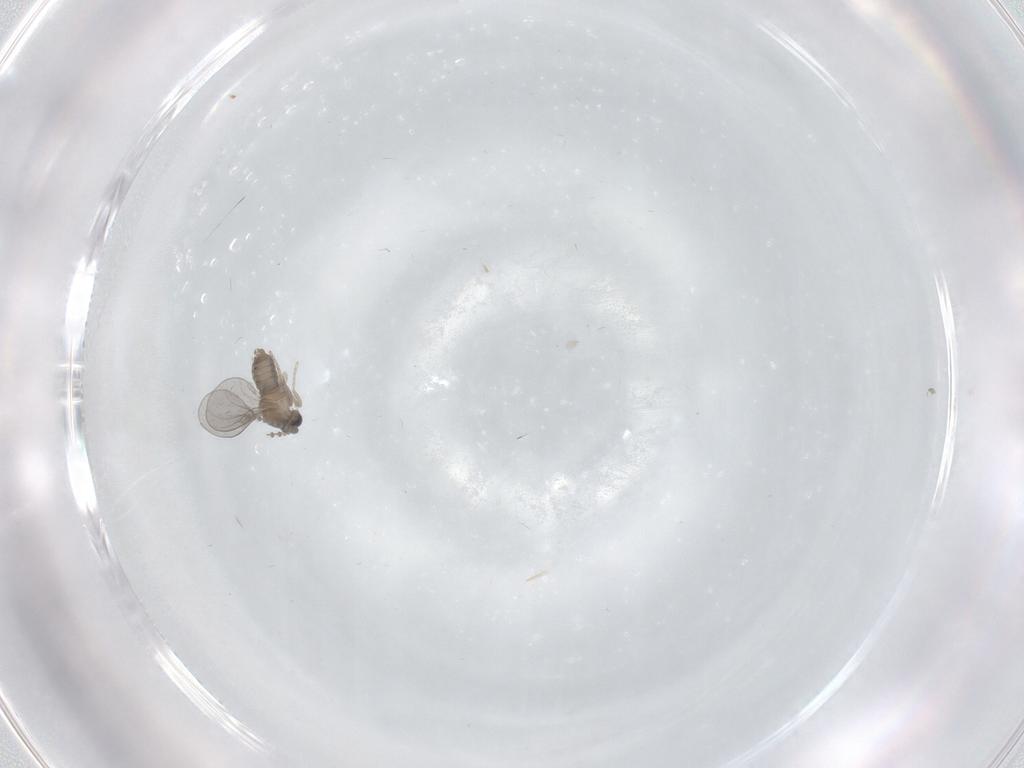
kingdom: Animalia
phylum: Arthropoda
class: Insecta
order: Diptera
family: Cecidomyiidae
